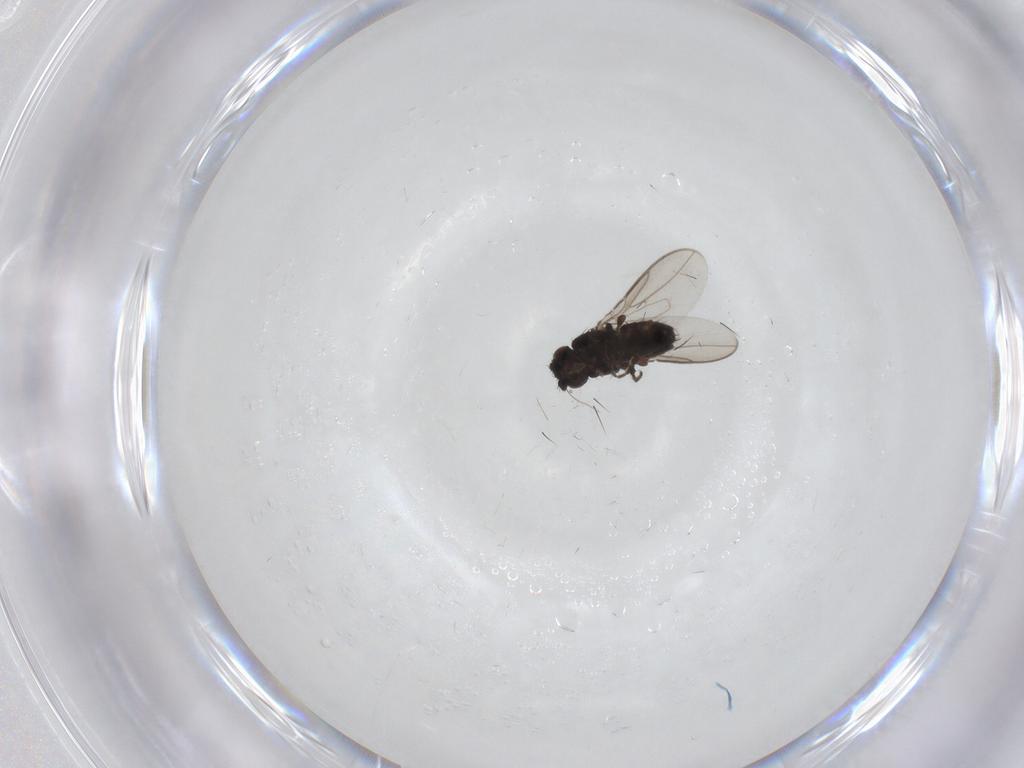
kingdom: Animalia
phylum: Arthropoda
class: Insecta
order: Diptera
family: Sphaeroceridae
